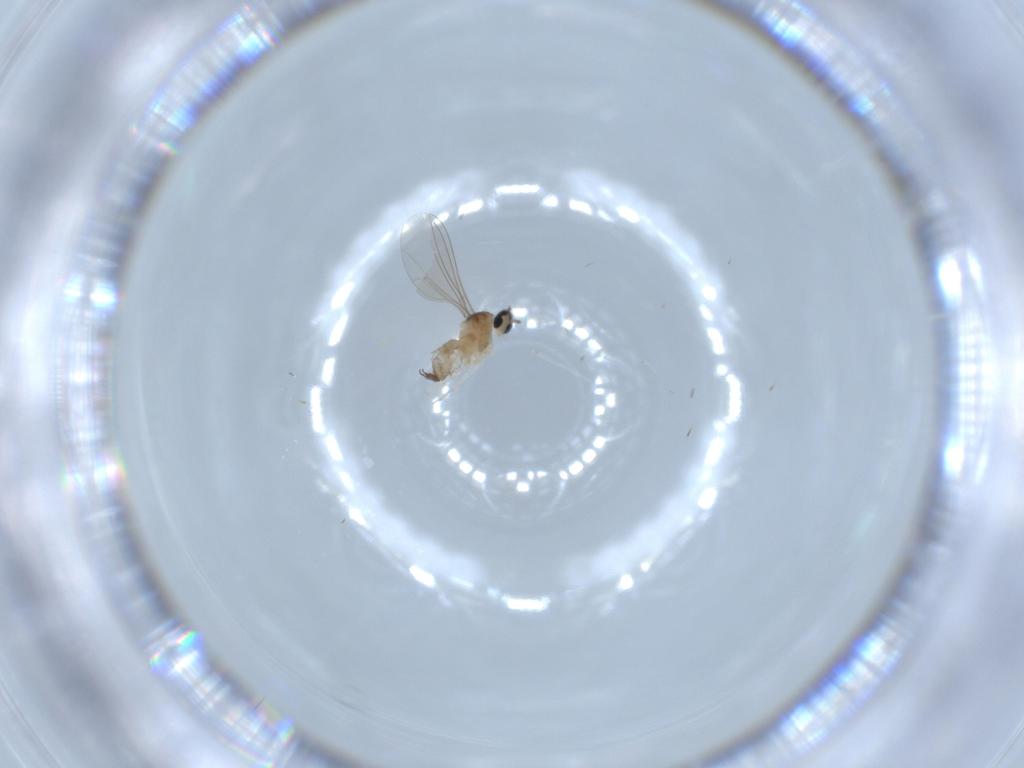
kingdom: Animalia
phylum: Arthropoda
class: Insecta
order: Diptera
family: Cecidomyiidae
